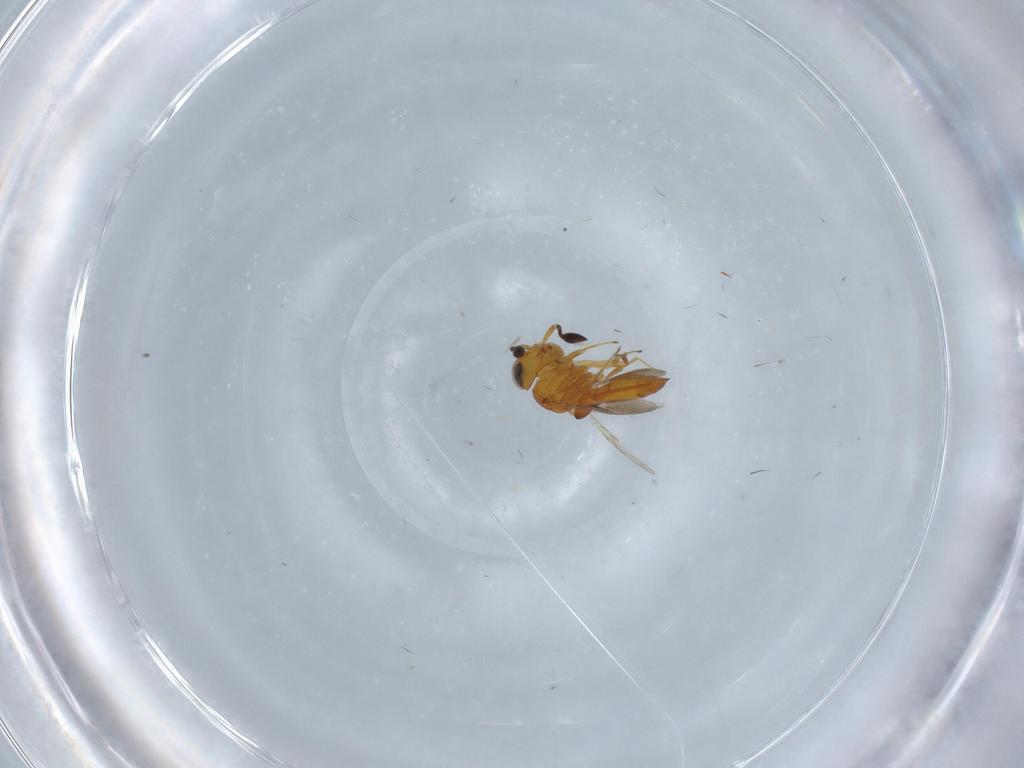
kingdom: Animalia
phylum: Arthropoda
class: Insecta
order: Hymenoptera
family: Scelionidae
